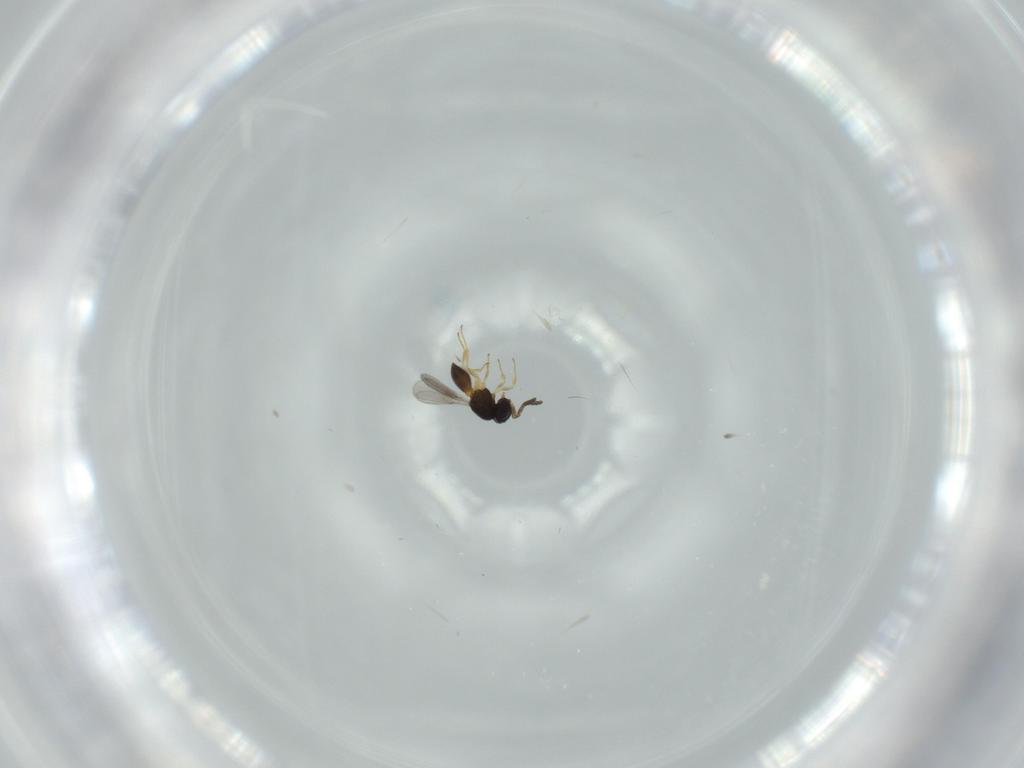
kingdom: Animalia
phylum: Arthropoda
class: Insecta
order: Hymenoptera
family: Scelionidae
